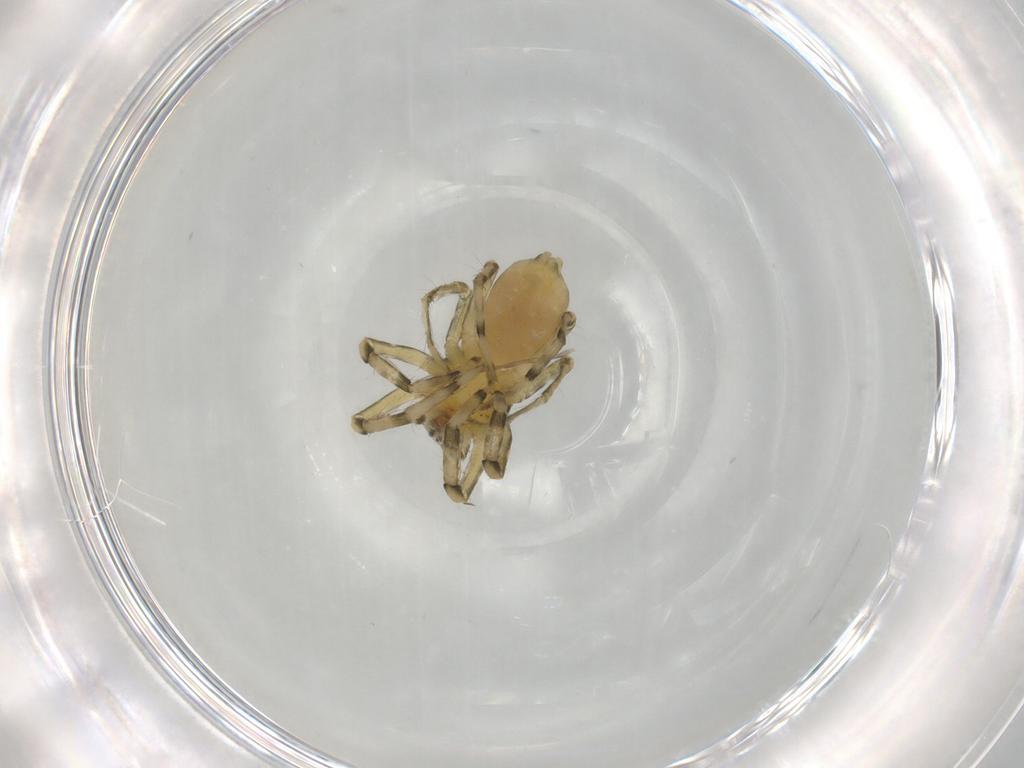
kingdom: Animalia
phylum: Arthropoda
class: Arachnida
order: Araneae
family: Senoculidae
